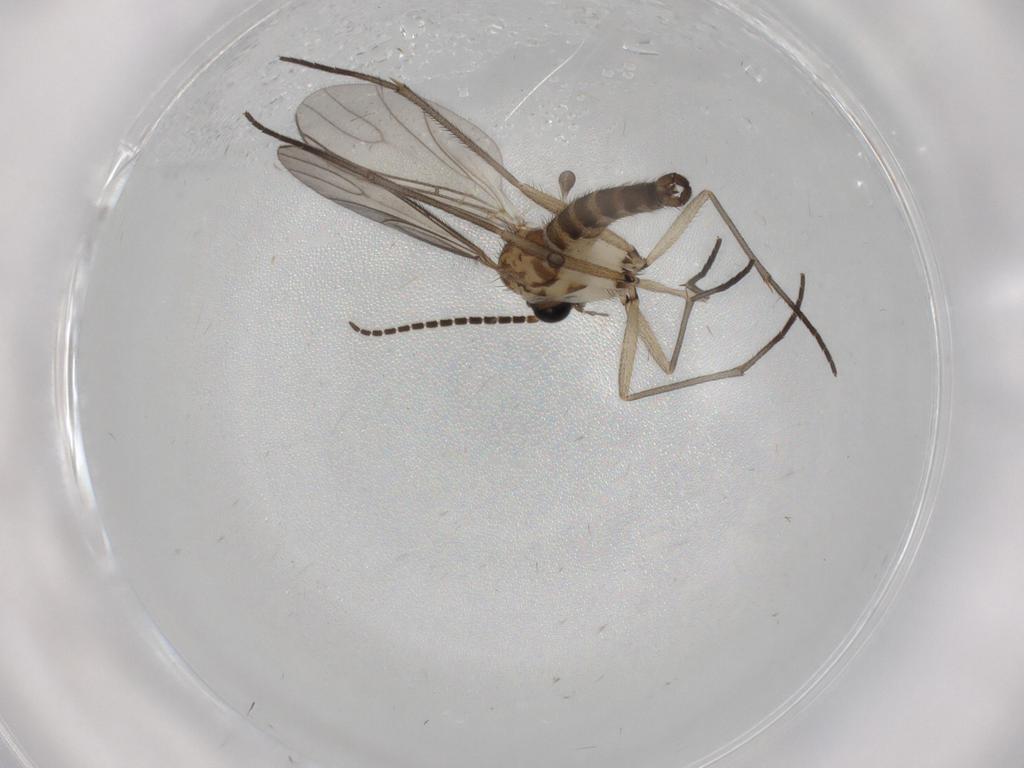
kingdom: Animalia
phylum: Arthropoda
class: Insecta
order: Diptera
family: Sciaridae
